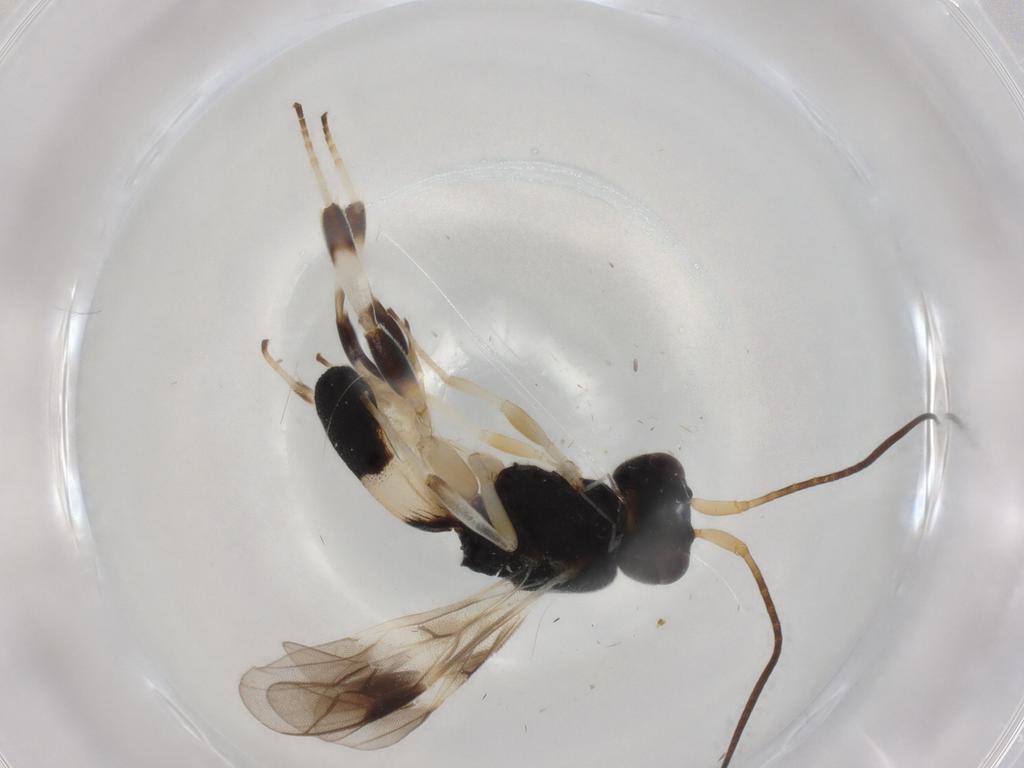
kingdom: Animalia
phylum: Arthropoda
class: Insecta
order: Hymenoptera
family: Braconidae
